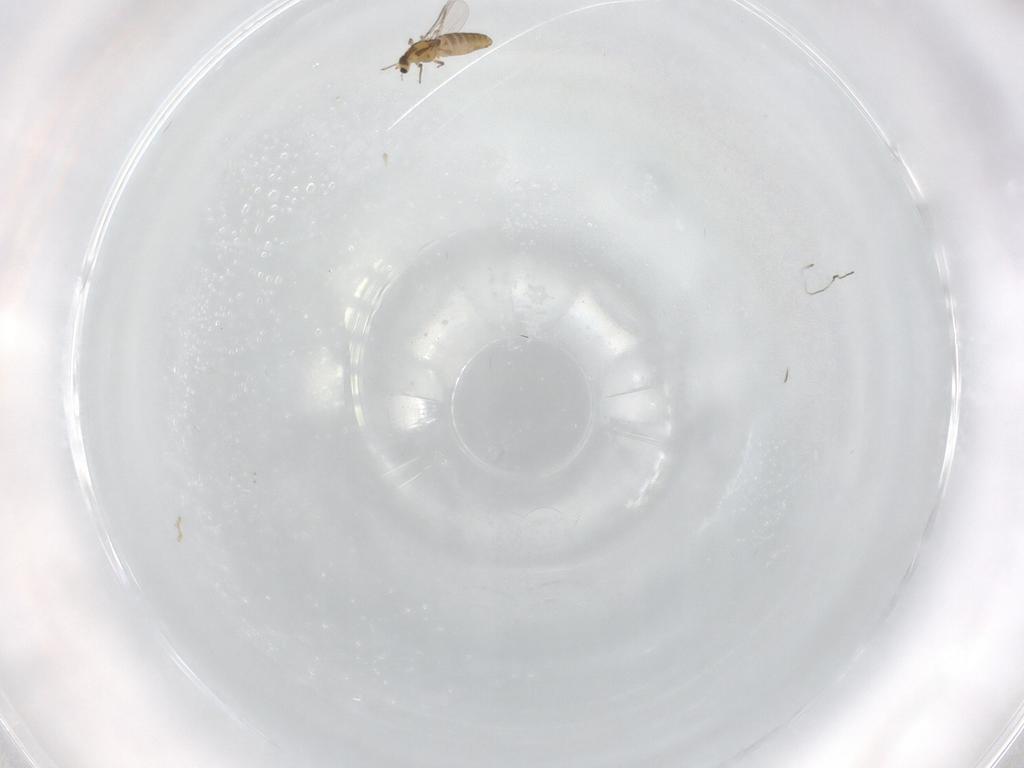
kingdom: Animalia
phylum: Arthropoda
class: Insecta
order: Diptera
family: Chironomidae
